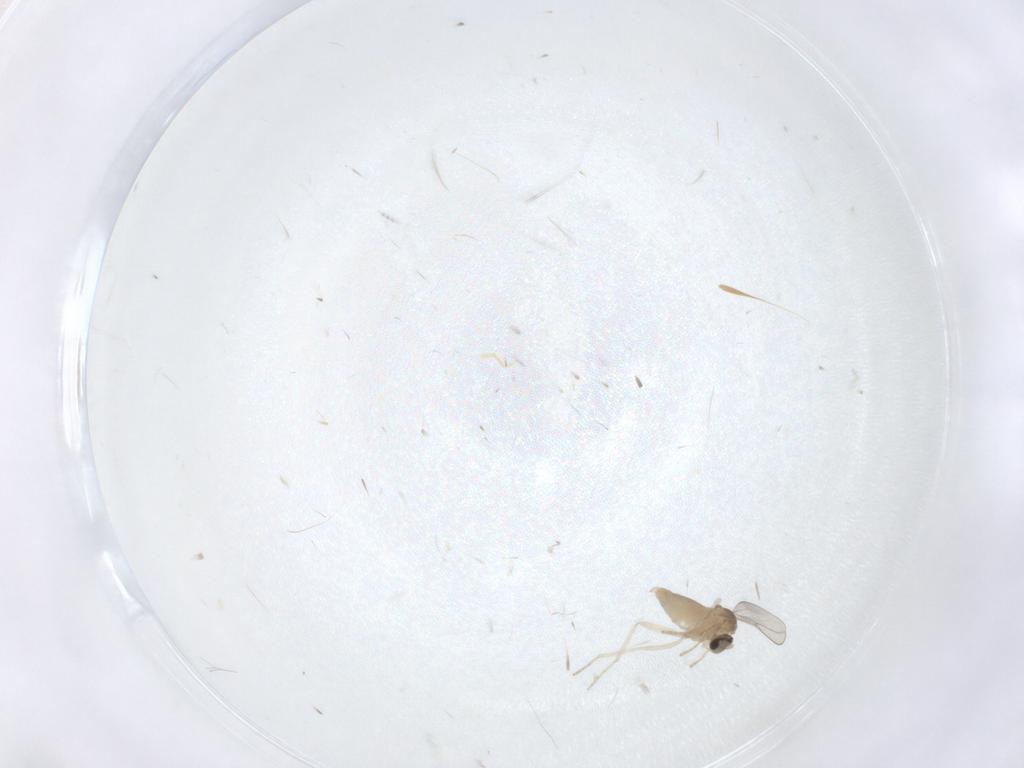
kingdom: Animalia
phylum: Arthropoda
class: Insecta
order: Diptera
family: Cecidomyiidae
